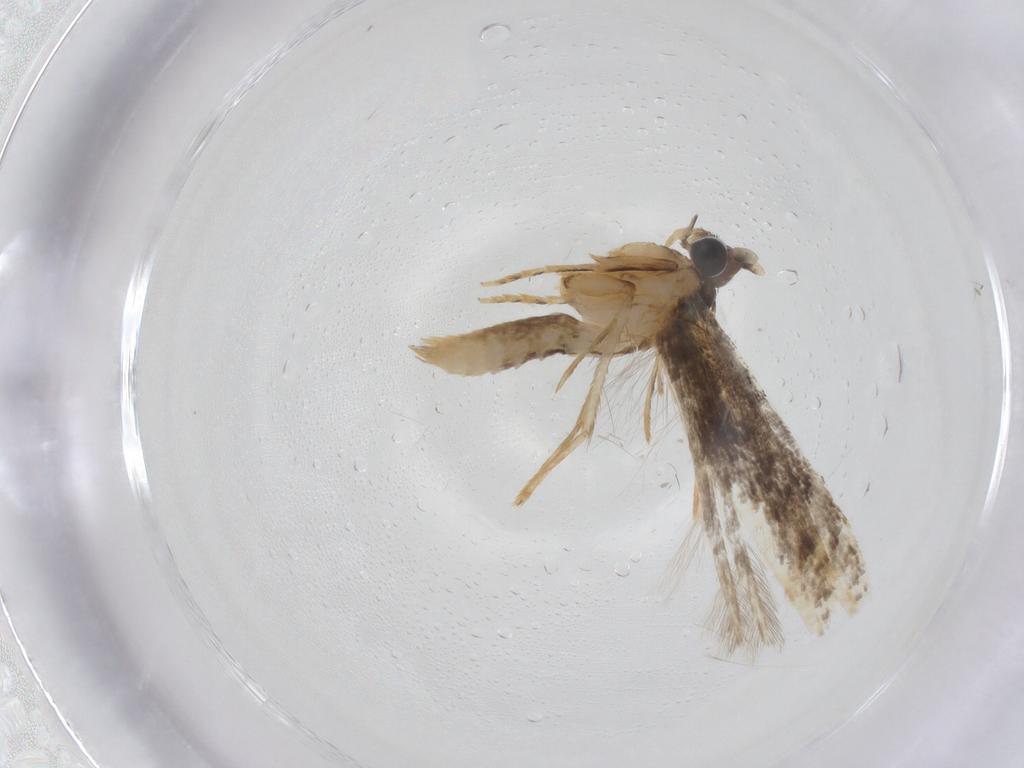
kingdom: Animalia
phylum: Arthropoda
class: Insecta
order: Lepidoptera
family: Tineidae
